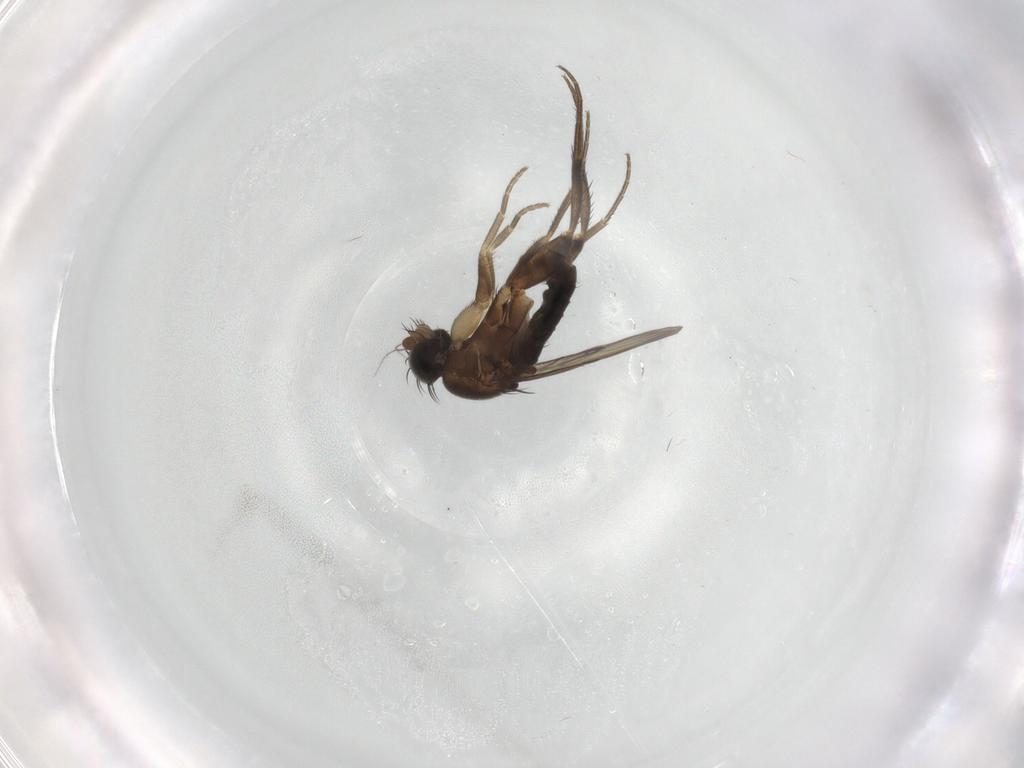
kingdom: Animalia
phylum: Arthropoda
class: Insecta
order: Diptera
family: Phoridae
